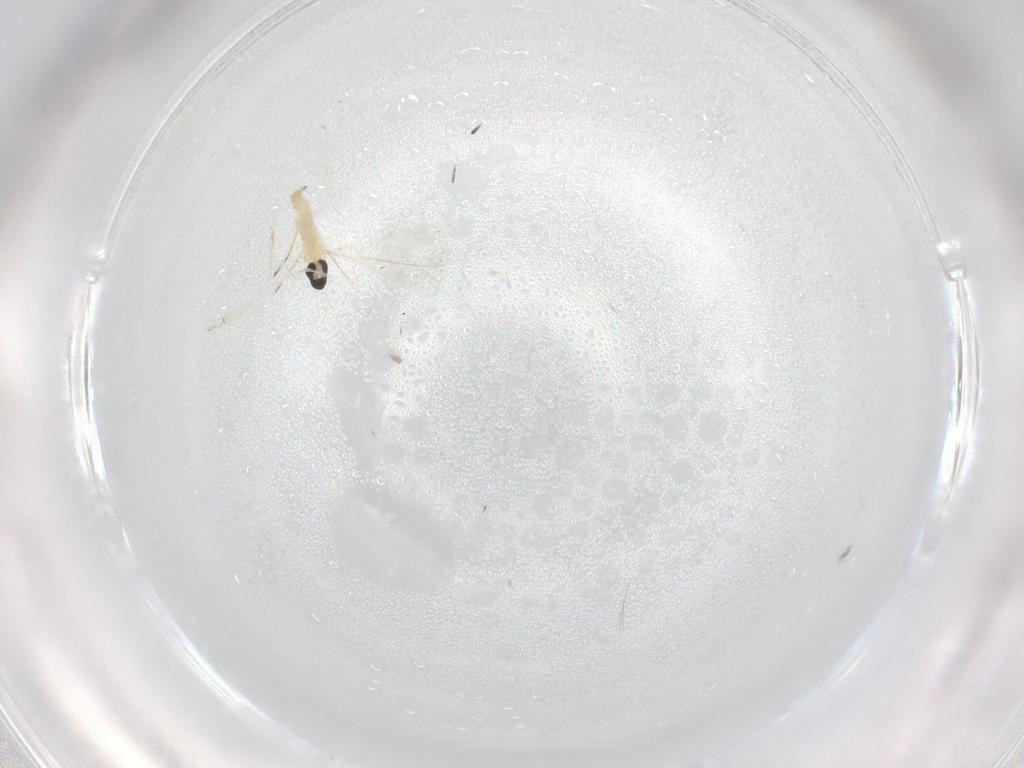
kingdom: Animalia
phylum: Arthropoda
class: Insecta
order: Diptera
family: Cecidomyiidae
